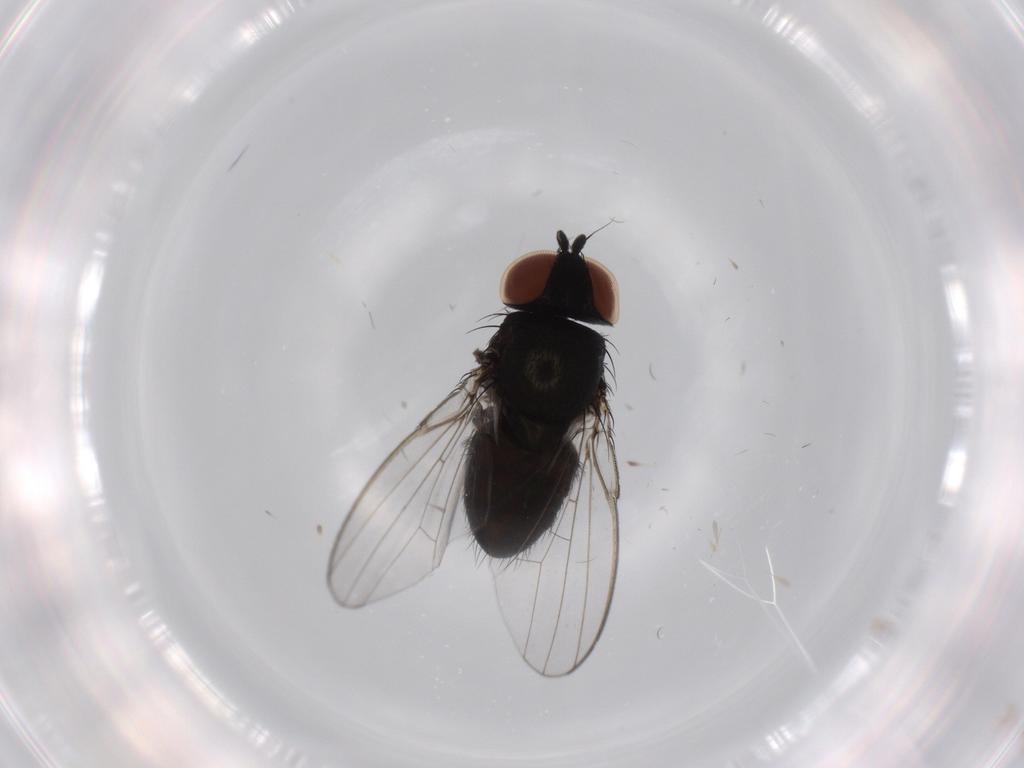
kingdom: Animalia
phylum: Arthropoda
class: Insecta
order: Diptera
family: Milichiidae
